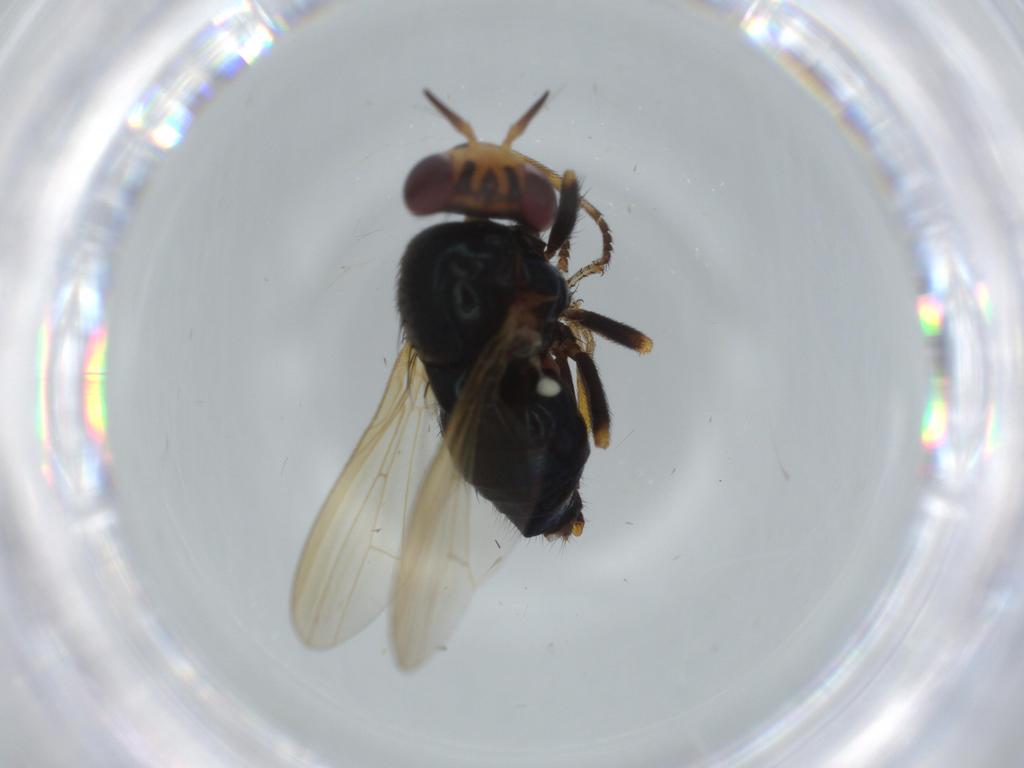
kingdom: Animalia
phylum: Arthropoda
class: Insecta
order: Diptera
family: Lauxaniidae
